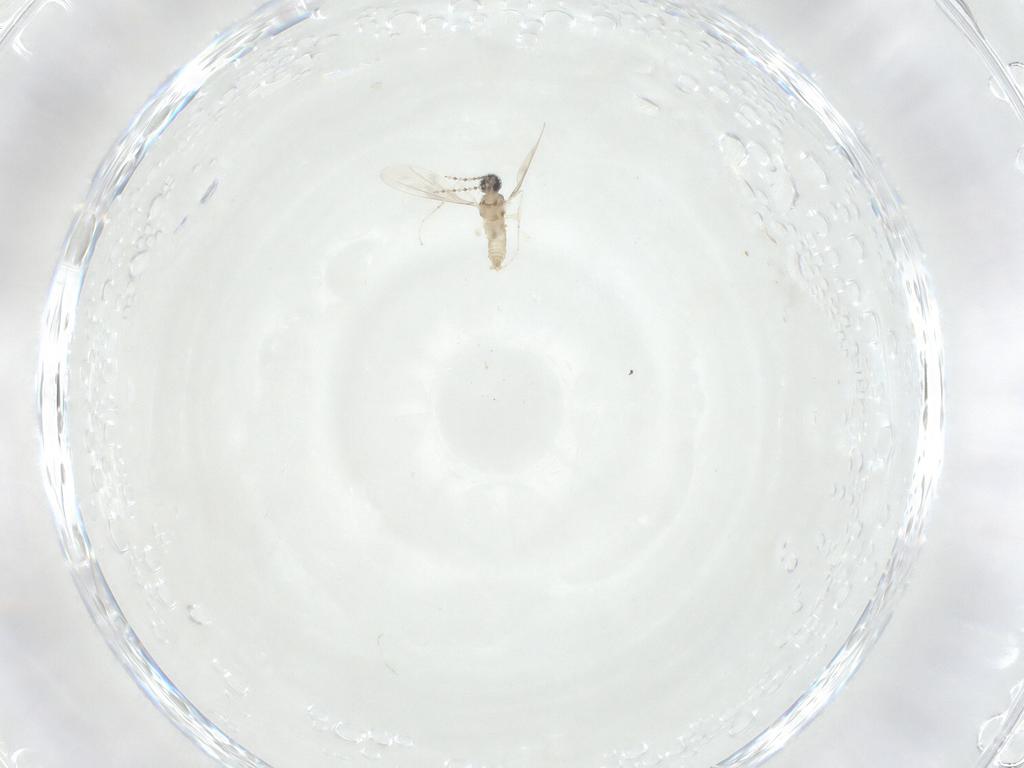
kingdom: Animalia
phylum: Arthropoda
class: Insecta
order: Diptera
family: Cecidomyiidae
